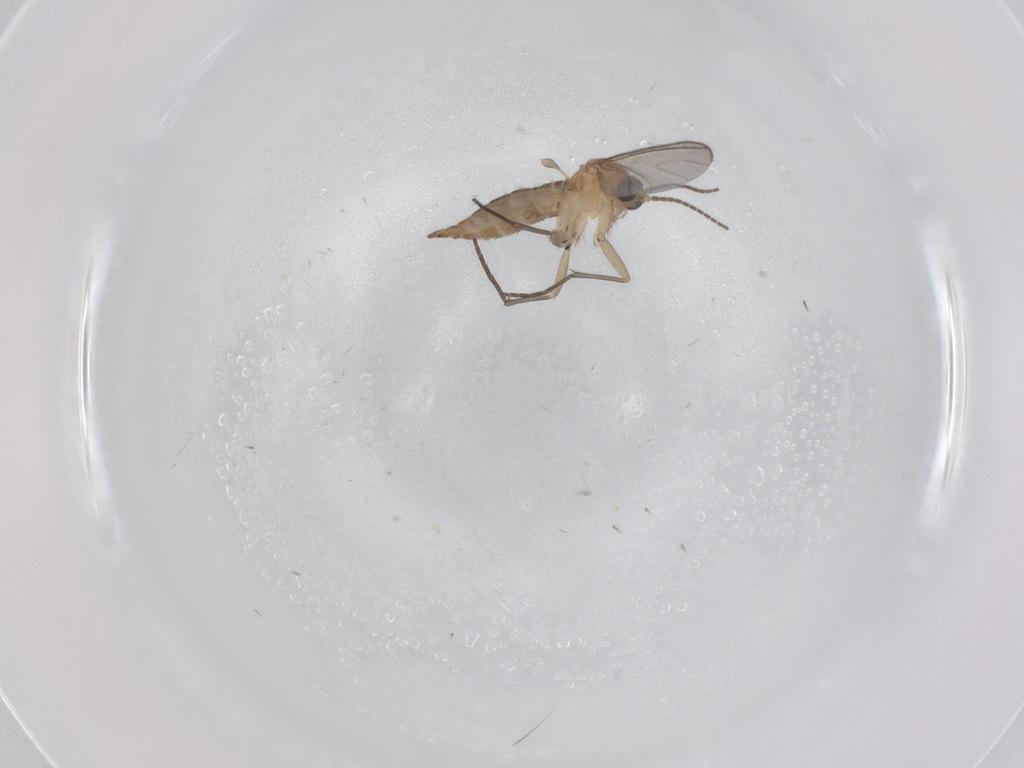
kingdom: Animalia
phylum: Arthropoda
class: Insecta
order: Diptera
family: Sciaridae
